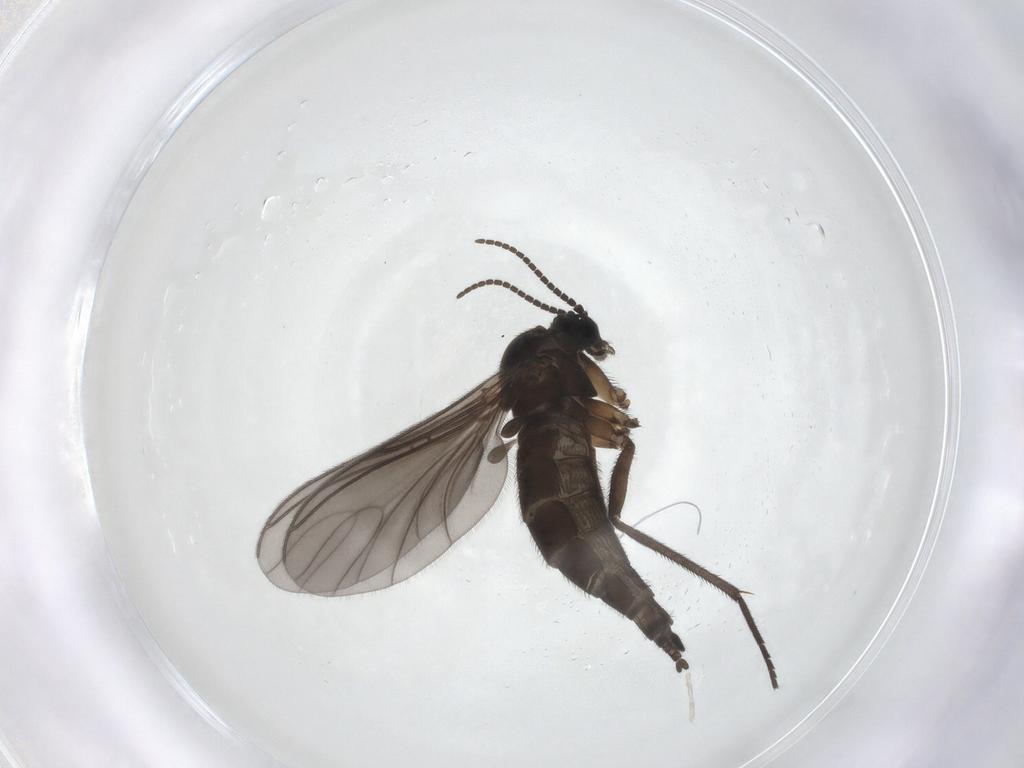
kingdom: Animalia
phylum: Arthropoda
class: Insecta
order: Diptera
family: Sciaridae
